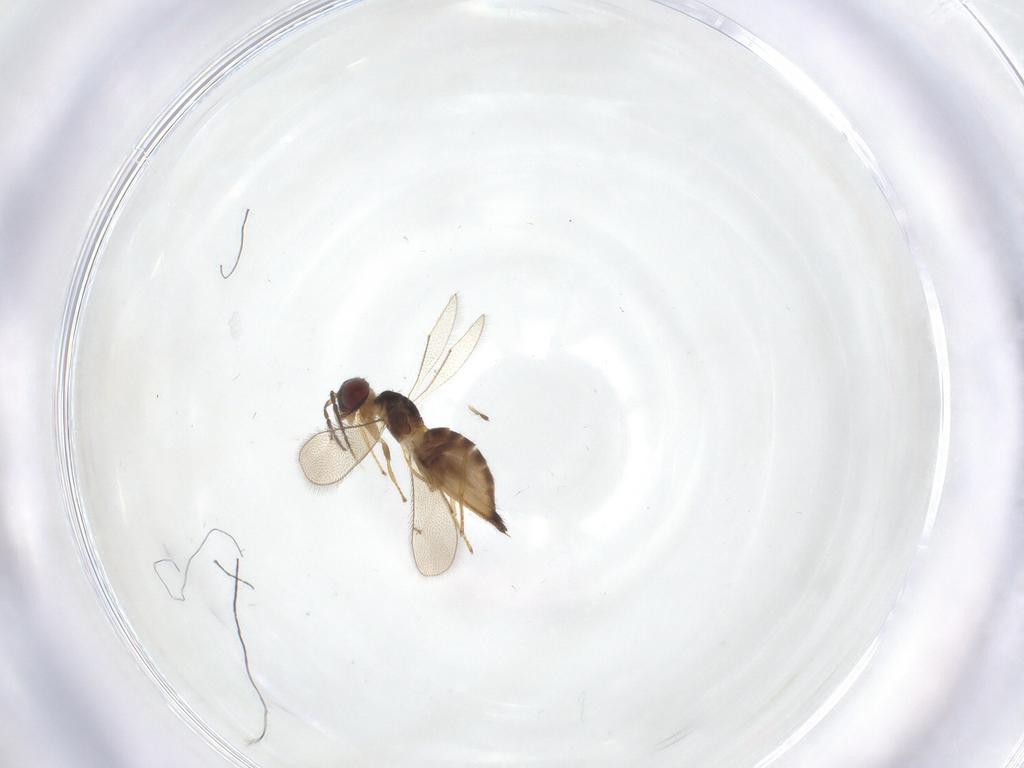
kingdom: Animalia
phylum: Arthropoda
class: Insecta
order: Hymenoptera
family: Eulophidae
